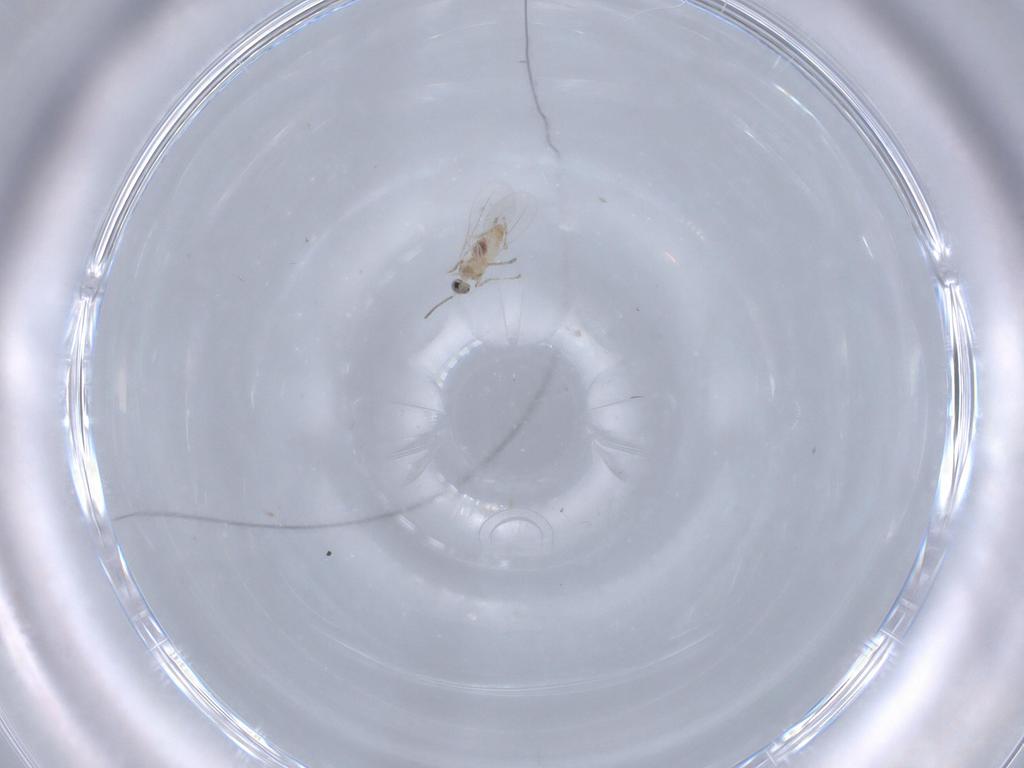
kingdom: Animalia
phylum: Arthropoda
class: Insecta
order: Diptera
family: Cecidomyiidae
